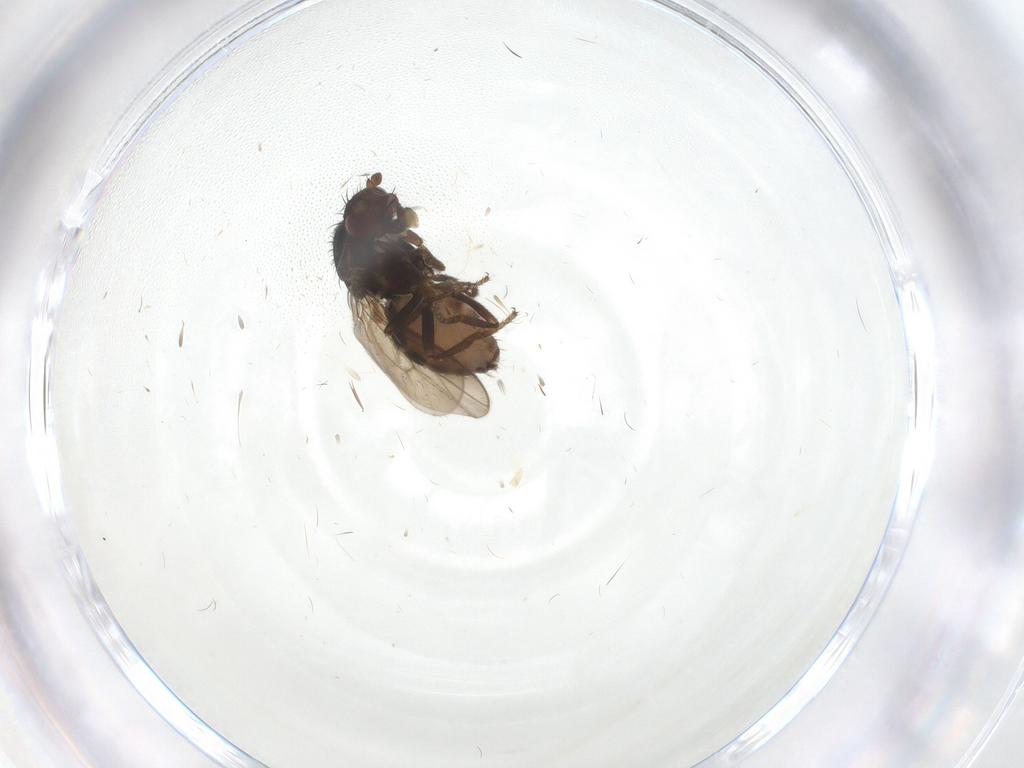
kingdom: Animalia
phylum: Arthropoda
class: Insecta
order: Diptera
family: Sphaeroceridae
